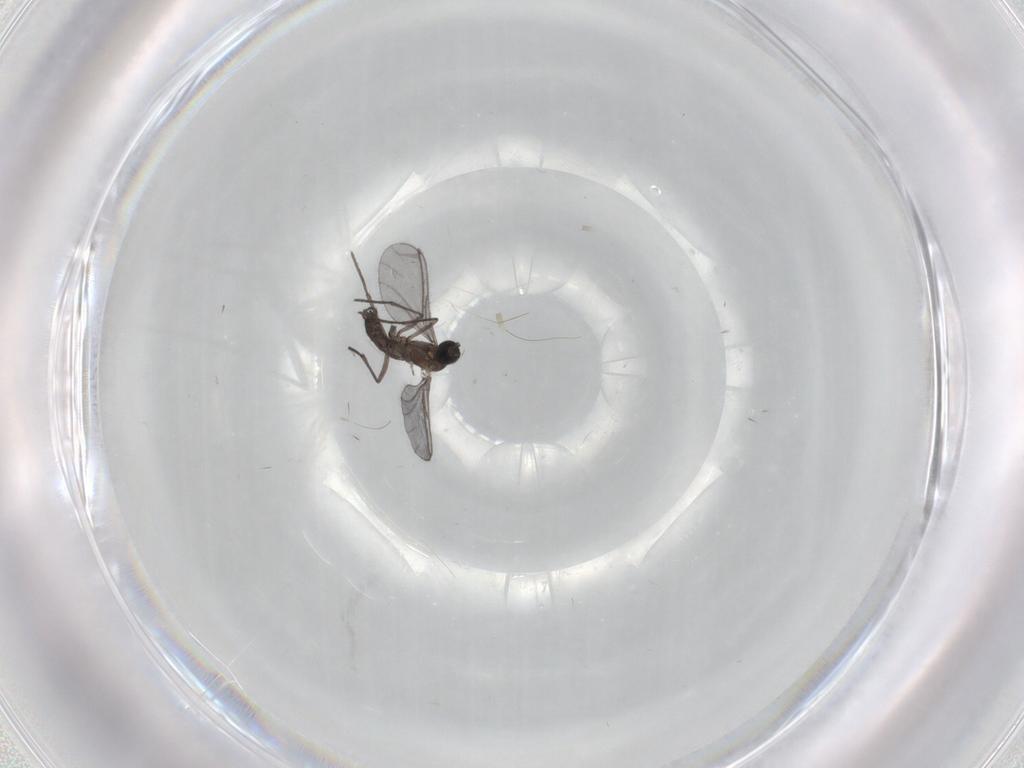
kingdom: Animalia
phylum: Arthropoda
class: Insecta
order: Diptera
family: Sciaridae
